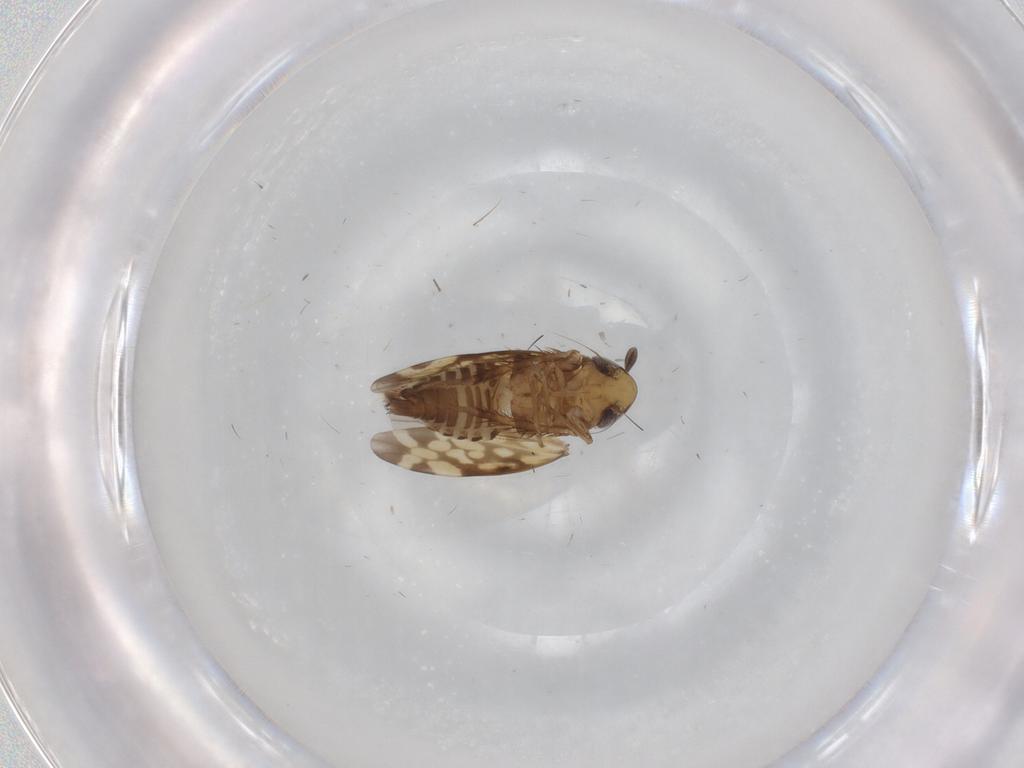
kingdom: Animalia
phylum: Arthropoda
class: Insecta
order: Hemiptera
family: Cicadellidae
